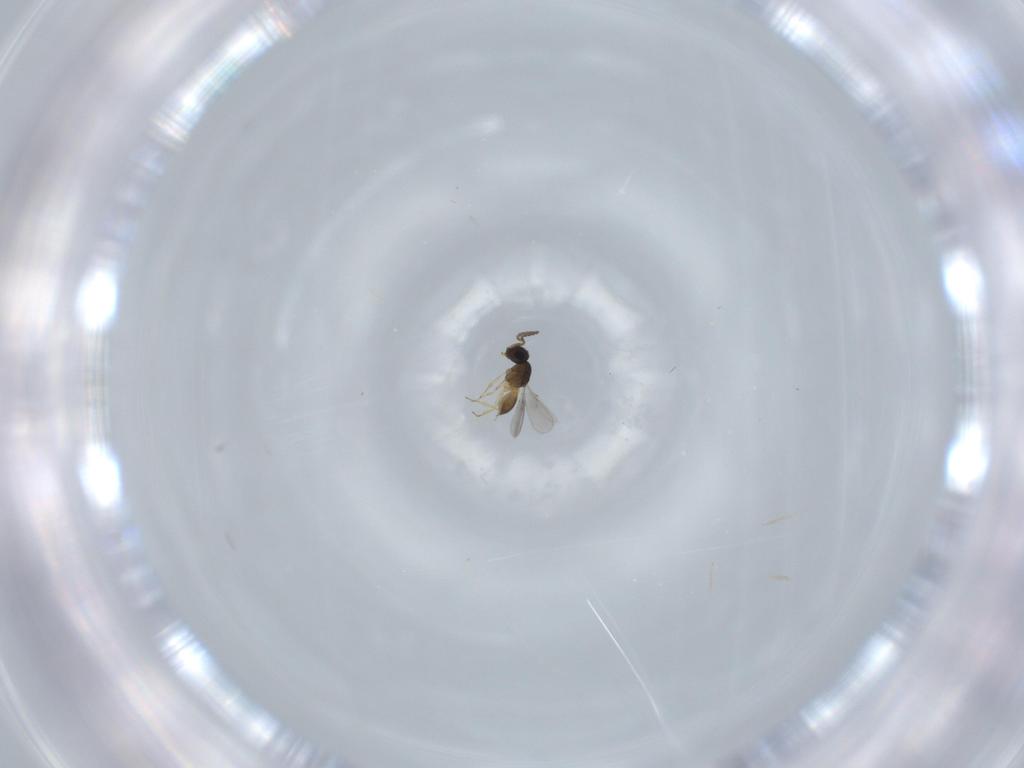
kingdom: Animalia
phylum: Arthropoda
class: Insecta
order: Hymenoptera
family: Scelionidae
